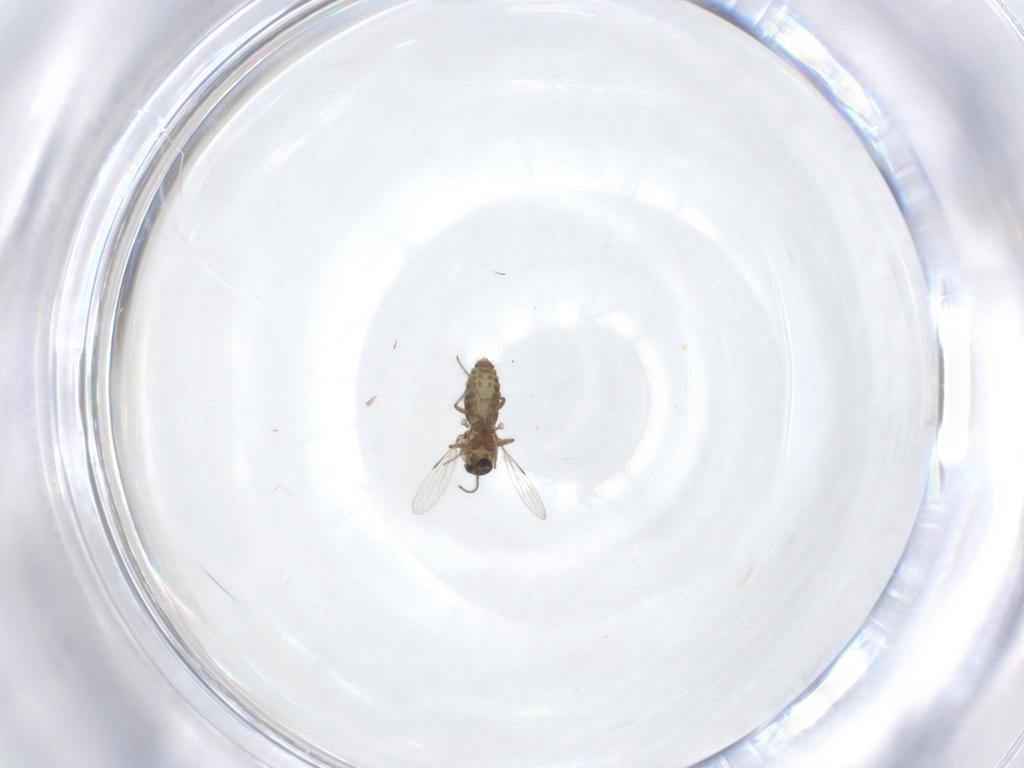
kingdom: Animalia
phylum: Arthropoda
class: Insecta
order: Diptera
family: Ceratopogonidae
